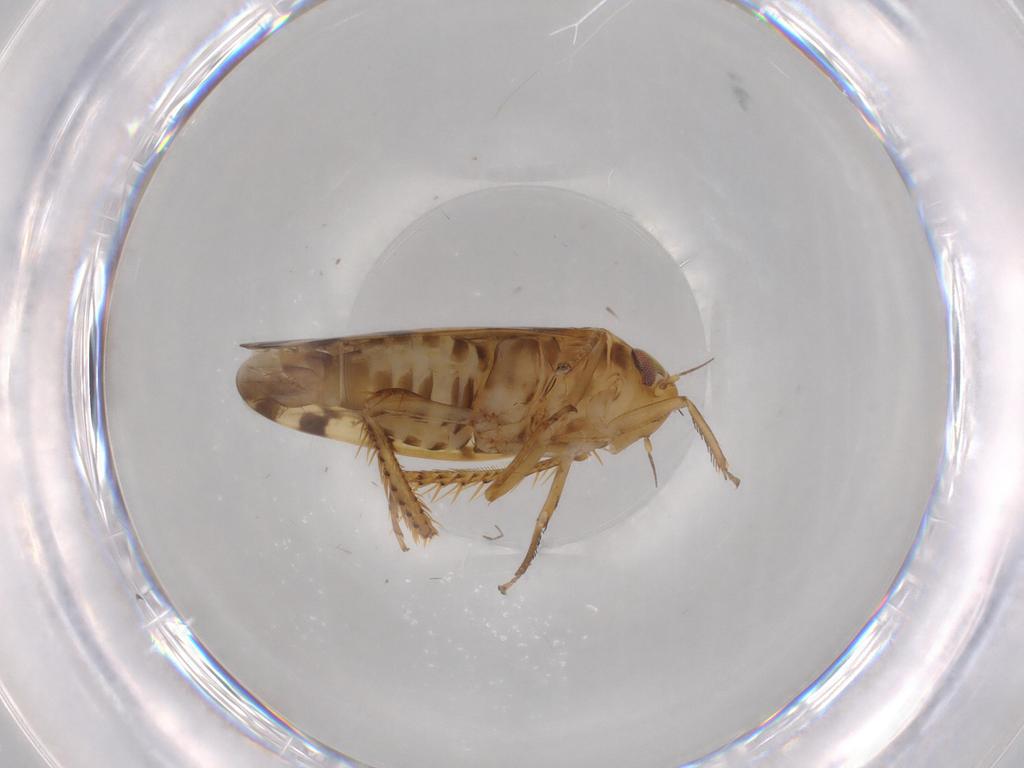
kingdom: Animalia
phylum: Arthropoda
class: Insecta
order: Hemiptera
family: Cicadellidae
